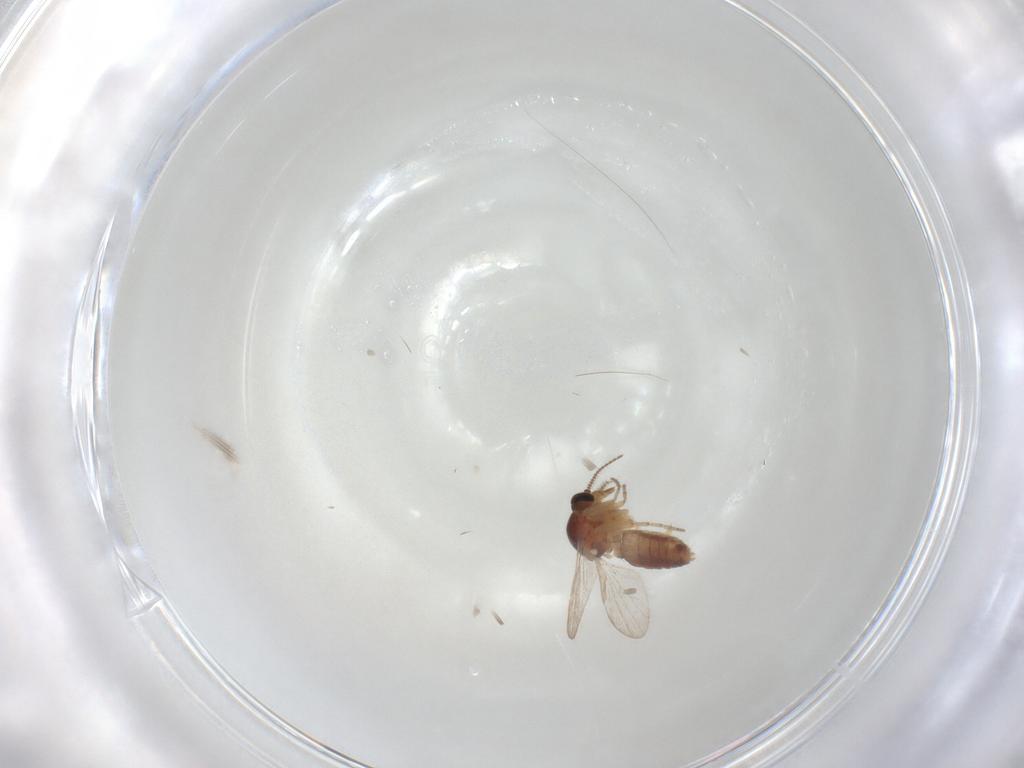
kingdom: Animalia
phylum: Arthropoda
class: Insecta
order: Diptera
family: Ceratopogonidae
